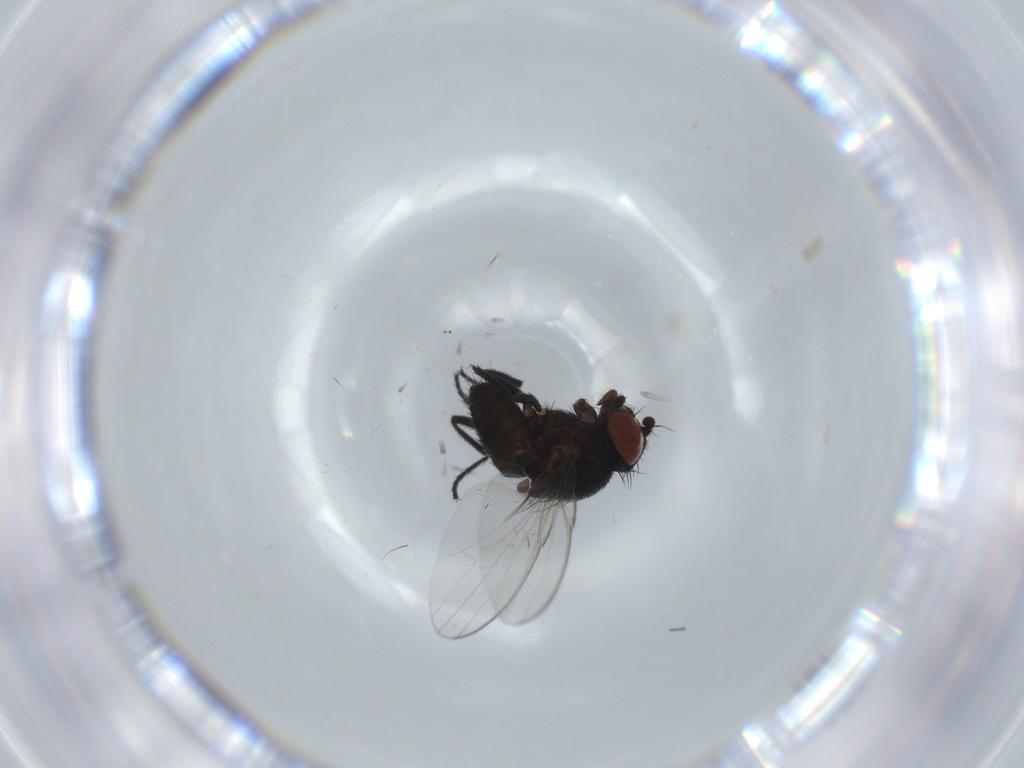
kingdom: Animalia
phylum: Arthropoda
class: Insecta
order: Diptera
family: Milichiidae
